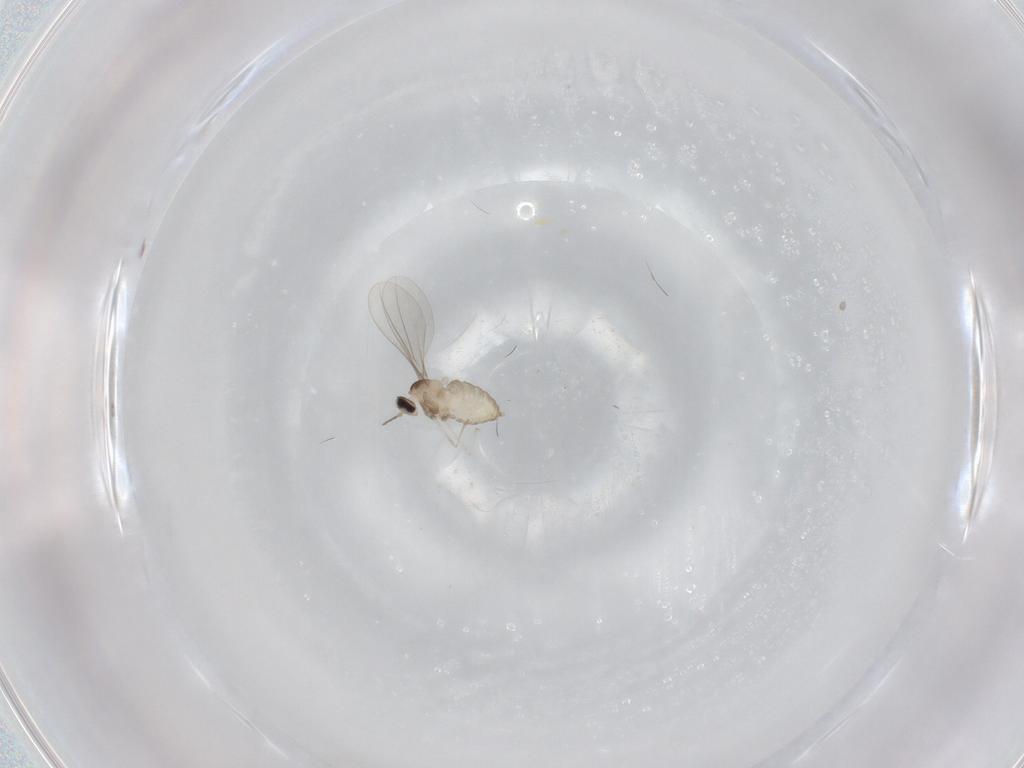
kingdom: Animalia
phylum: Arthropoda
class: Insecta
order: Diptera
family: Cecidomyiidae
